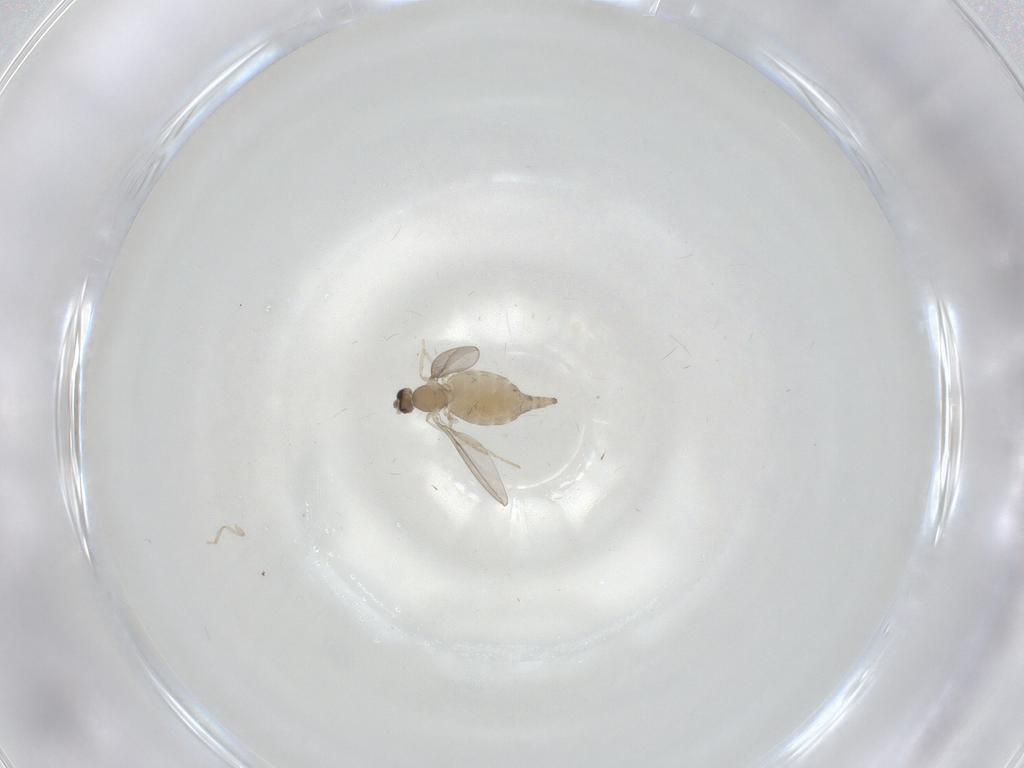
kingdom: Animalia
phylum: Arthropoda
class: Insecta
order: Diptera
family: Cecidomyiidae
